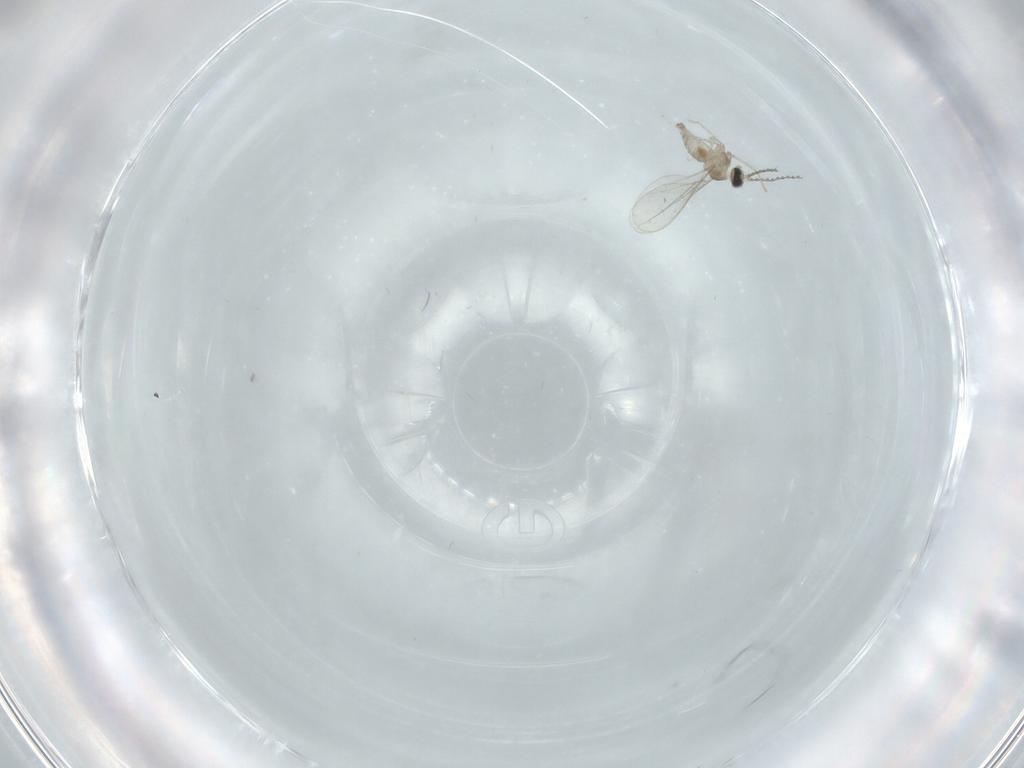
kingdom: Animalia
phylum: Arthropoda
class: Insecta
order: Diptera
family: Cecidomyiidae
